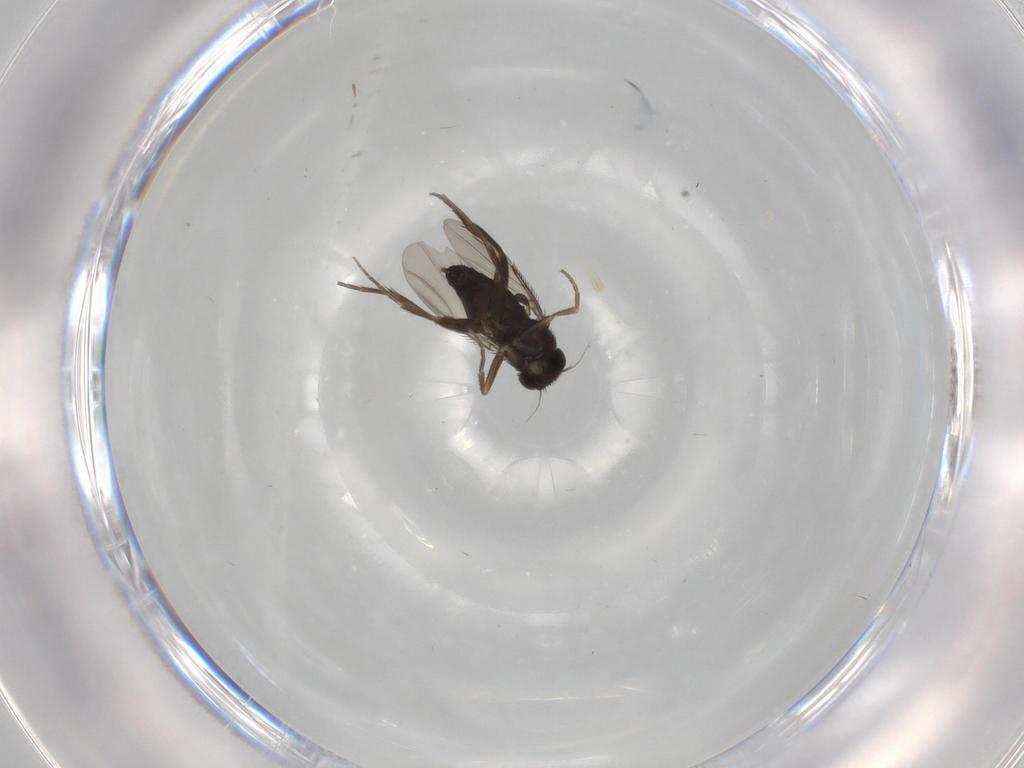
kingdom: Animalia
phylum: Arthropoda
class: Insecta
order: Diptera
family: Phoridae
